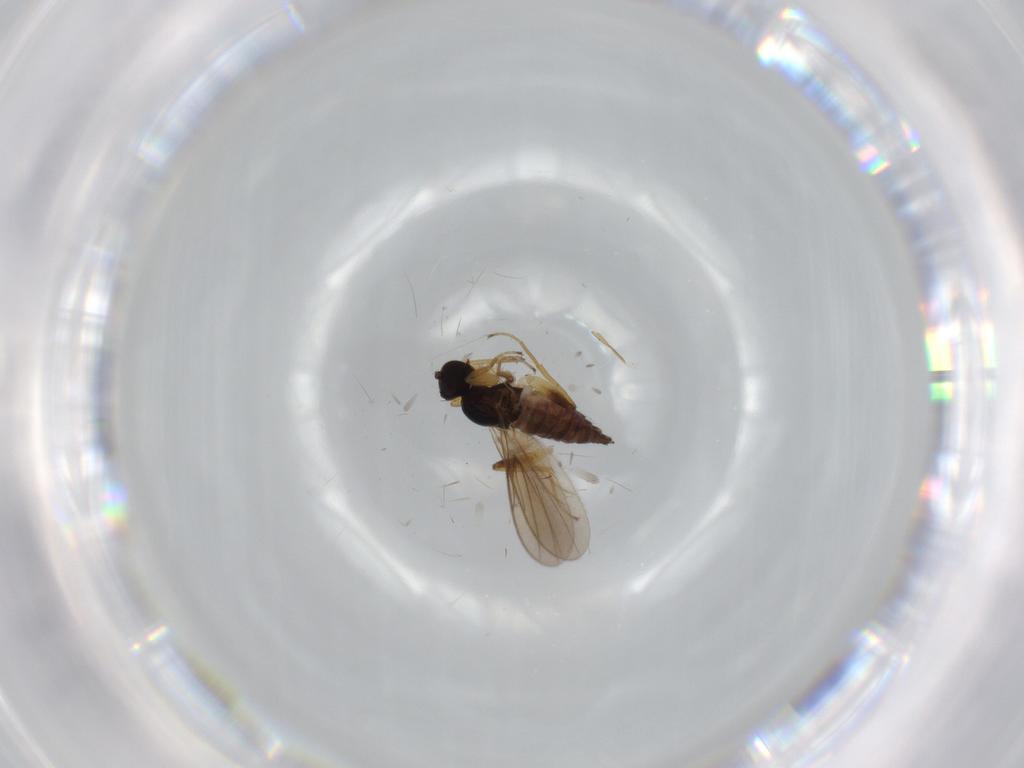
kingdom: Animalia
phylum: Arthropoda
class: Insecta
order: Diptera
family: Hybotidae
